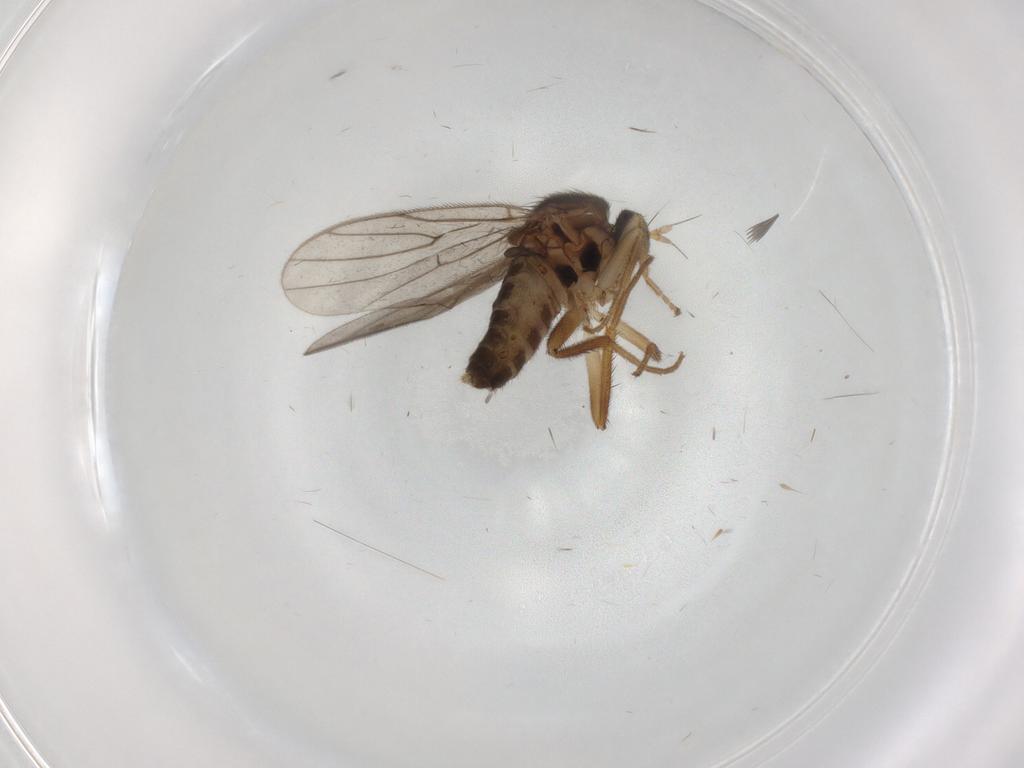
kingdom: Animalia
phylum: Arthropoda
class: Insecta
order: Diptera
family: Hybotidae
